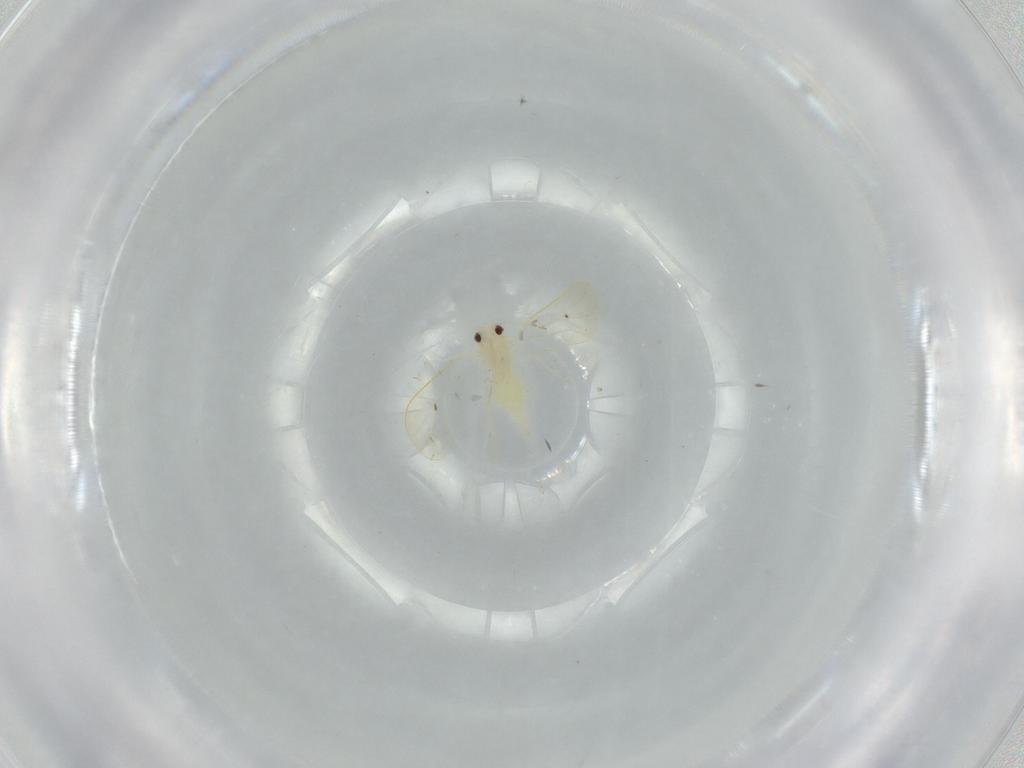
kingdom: Animalia
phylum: Arthropoda
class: Insecta
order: Hemiptera
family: Aleyrodidae
